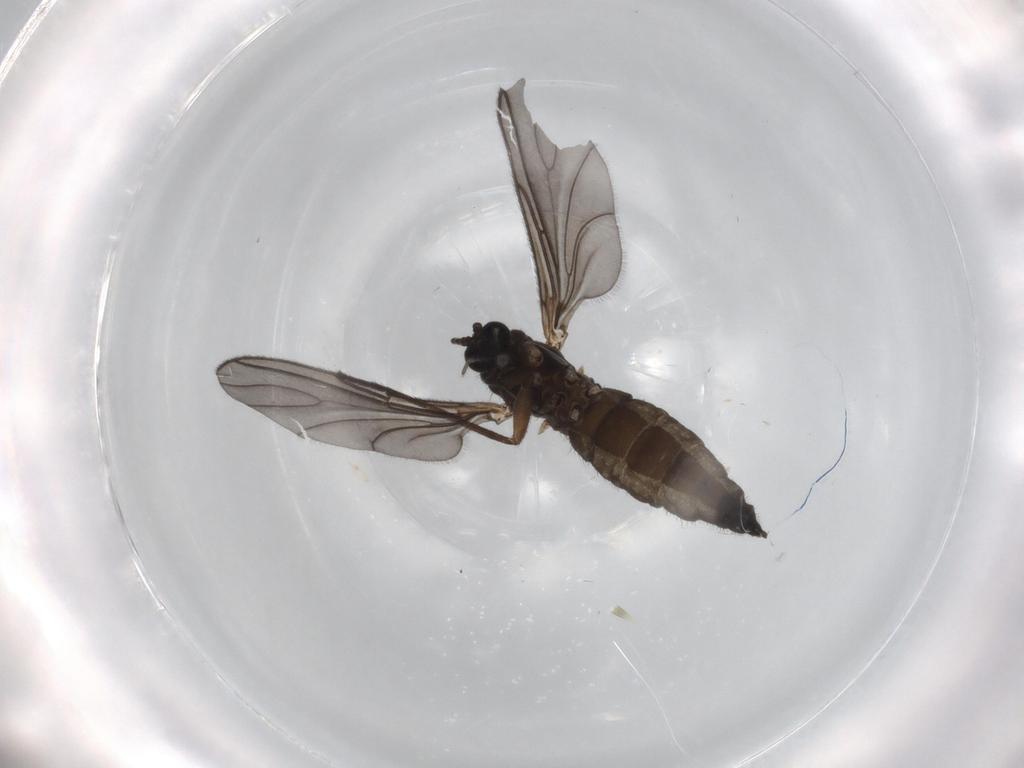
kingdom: Animalia
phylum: Arthropoda
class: Insecta
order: Diptera
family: Sciaridae
